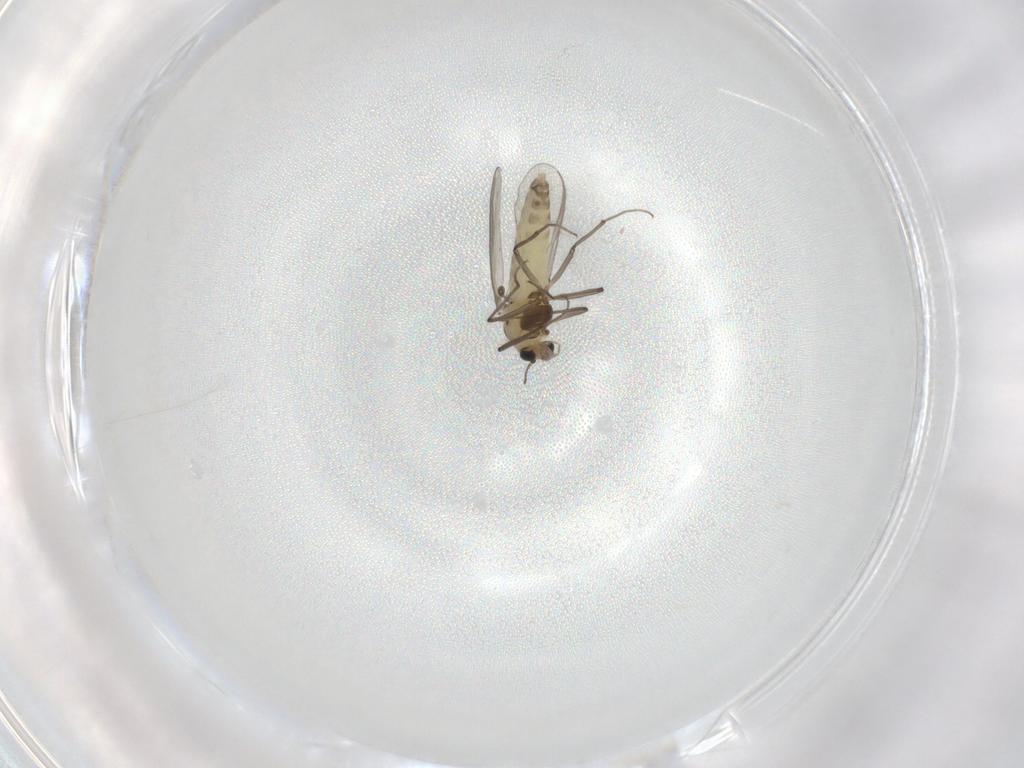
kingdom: Animalia
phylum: Arthropoda
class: Insecta
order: Diptera
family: Chironomidae
